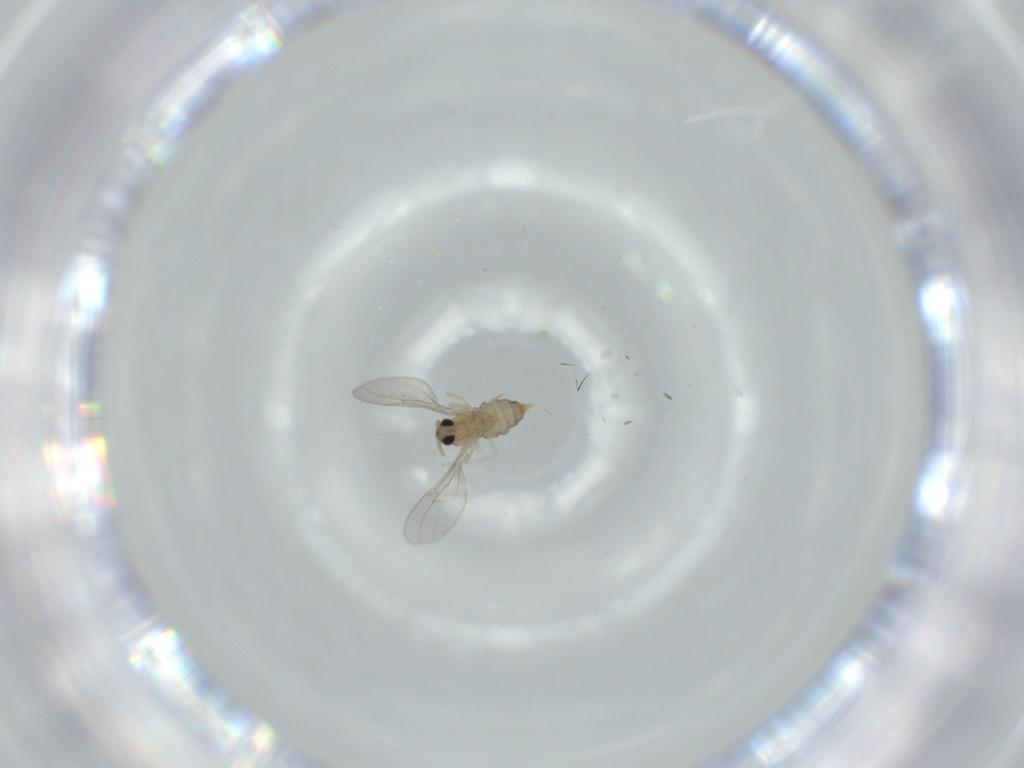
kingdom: Animalia
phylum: Arthropoda
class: Insecta
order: Diptera
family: Cecidomyiidae
